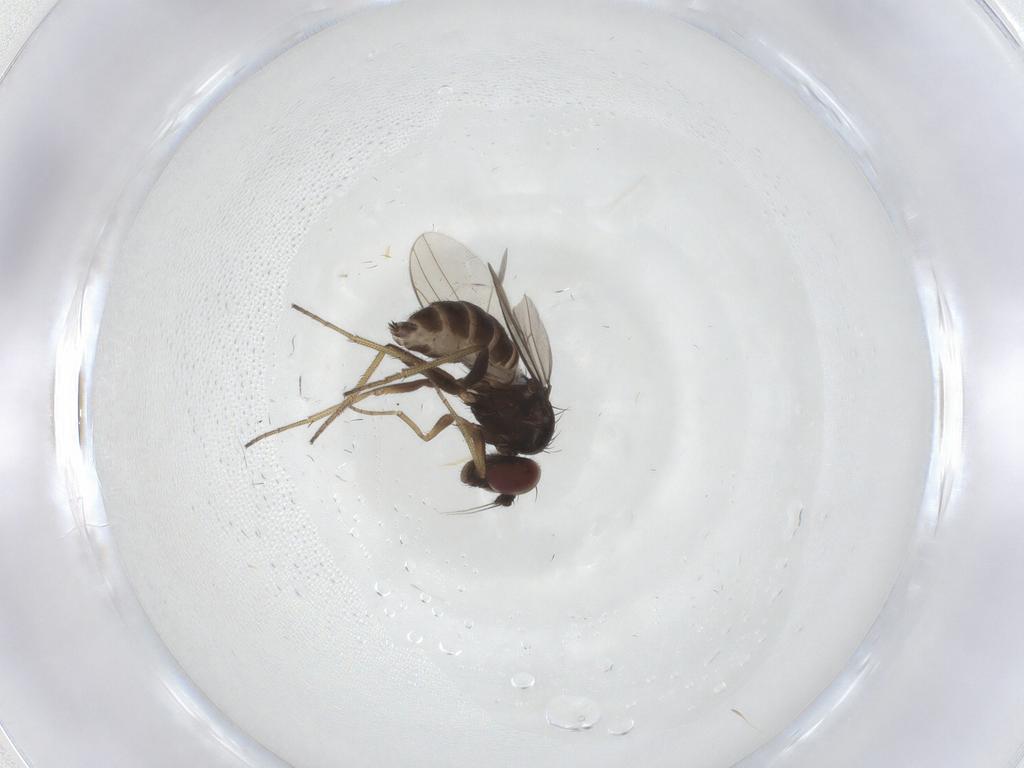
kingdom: Animalia
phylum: Arthropoda
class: Insecta
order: Diptera
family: Dolichopodidae
